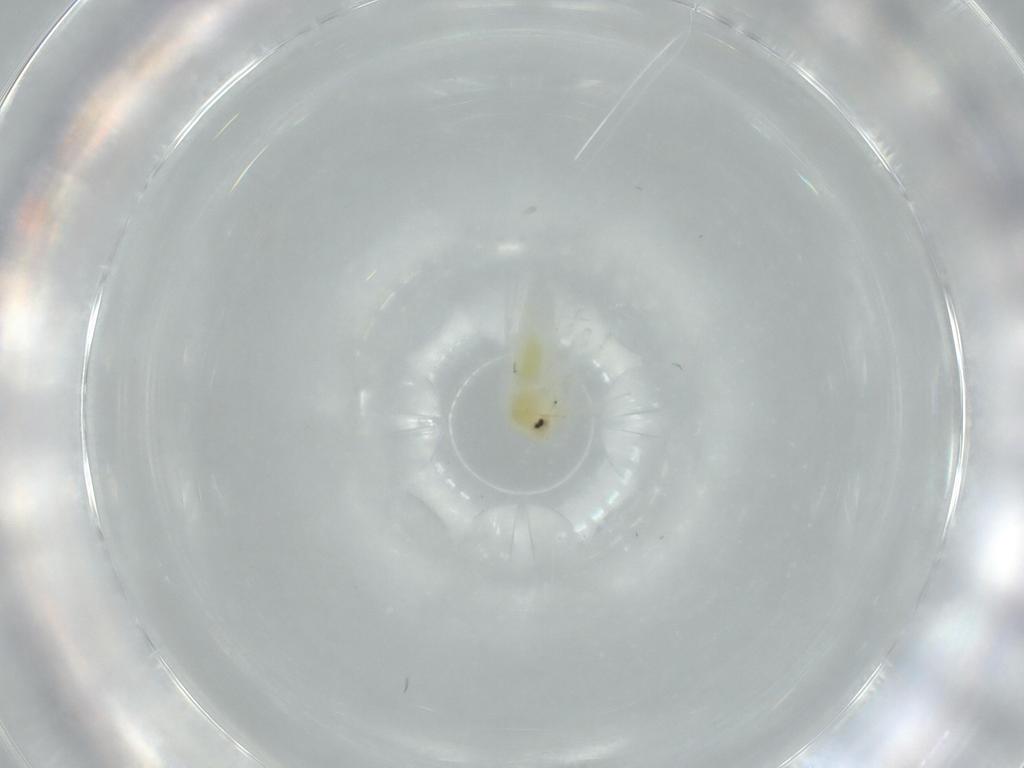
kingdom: Animalia
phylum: Arthropoda
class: Insecta
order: Hemiptera
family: Aleyrodidae
